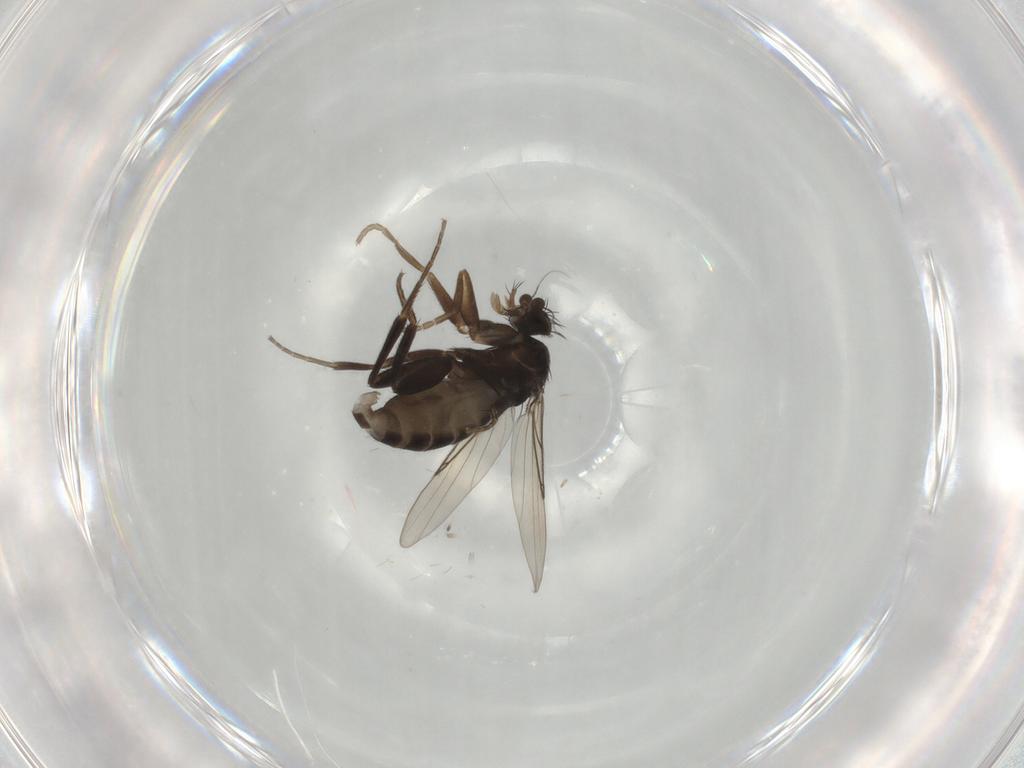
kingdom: Animalia
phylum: Arthropoda
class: Insecta
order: Diptera
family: Phoridae
